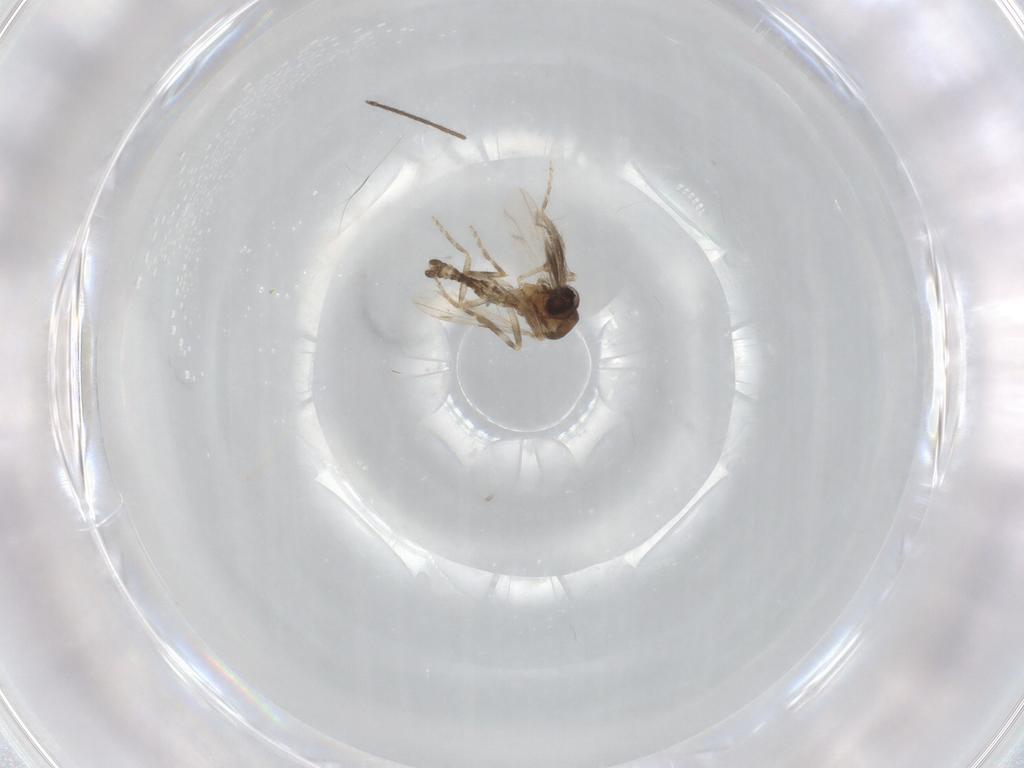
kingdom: Animalia
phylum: Arthropoda
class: Insecta
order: Diptera
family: Ceratopogonidae
